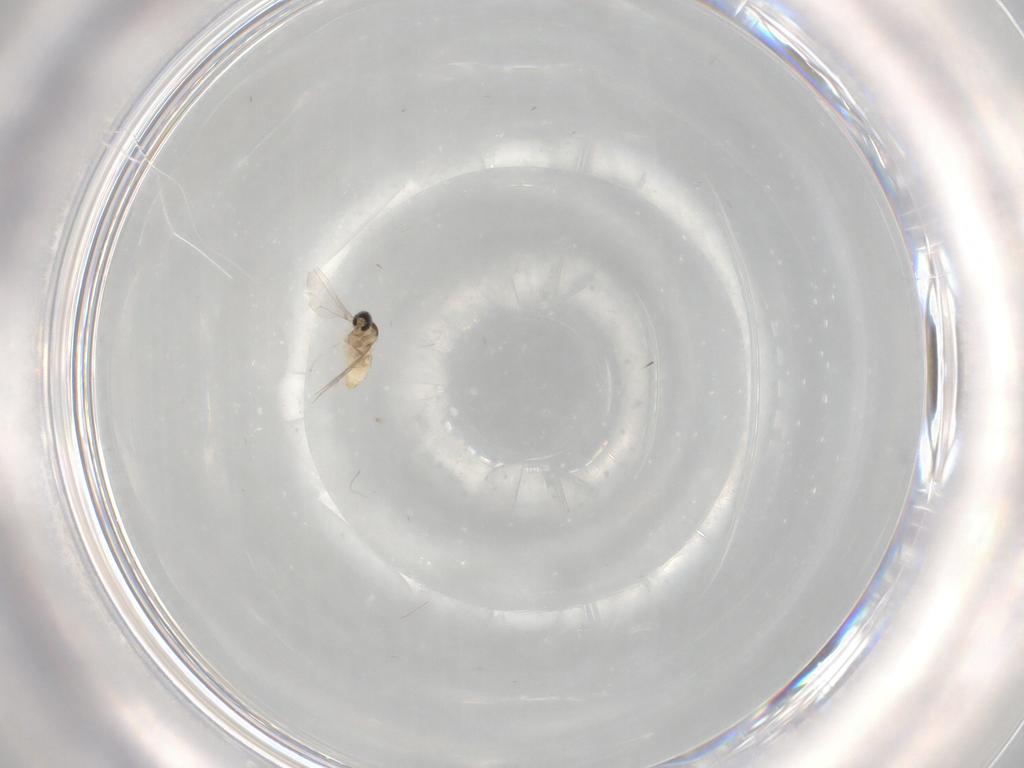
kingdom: Animalia
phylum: Arthropoda
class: Insecta
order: Diptera
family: Cecidomyiidae
